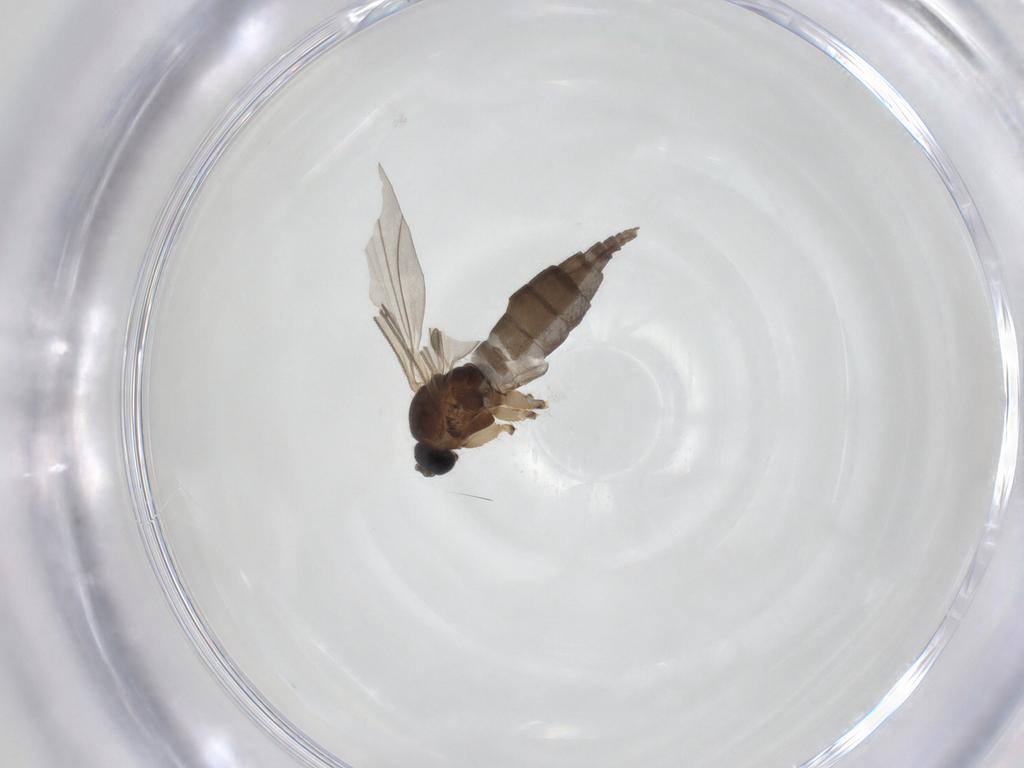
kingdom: Animalia
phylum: Arthropoda
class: Insecta
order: Diptera
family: Sciaridae
